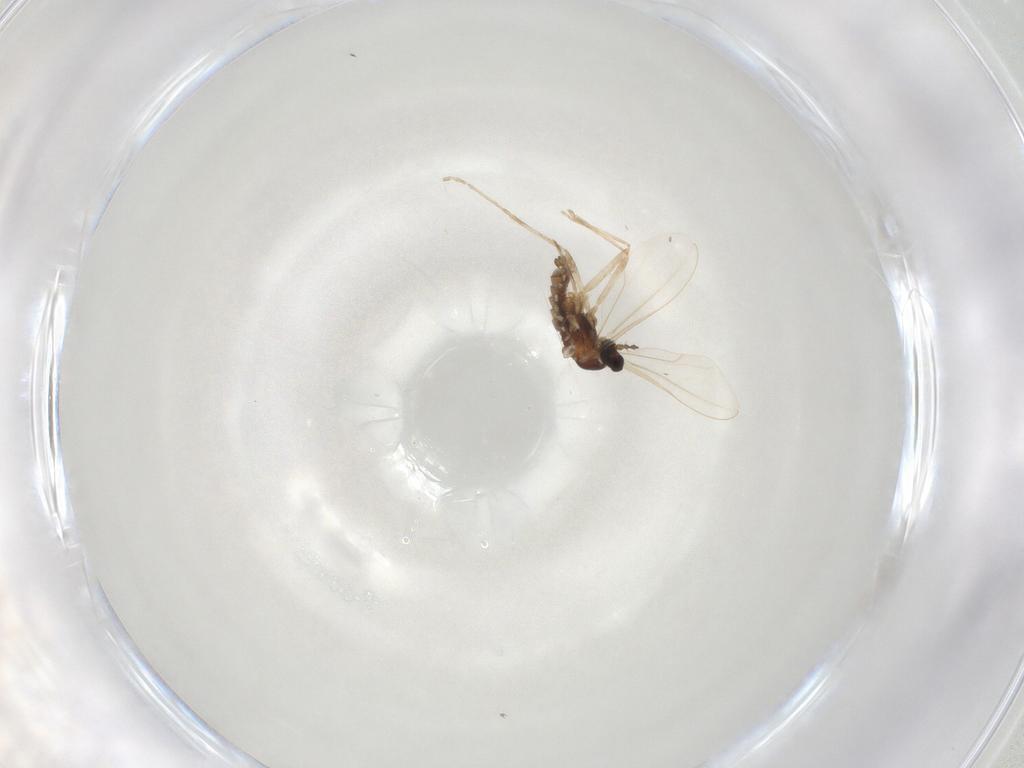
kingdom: Animalia
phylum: Arthropoda
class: Insecta
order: Diptera
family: Cecidomyiidae
